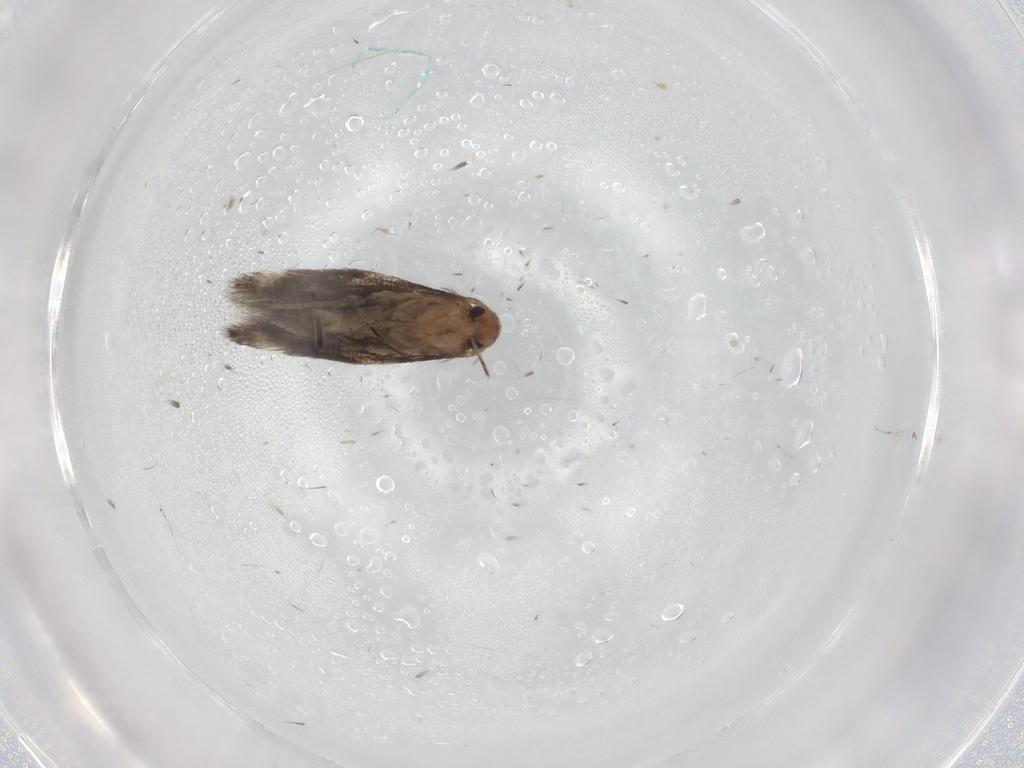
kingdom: Animalia
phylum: Arthropoda
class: Insecta
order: Lepidoptera
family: Elachistidae
